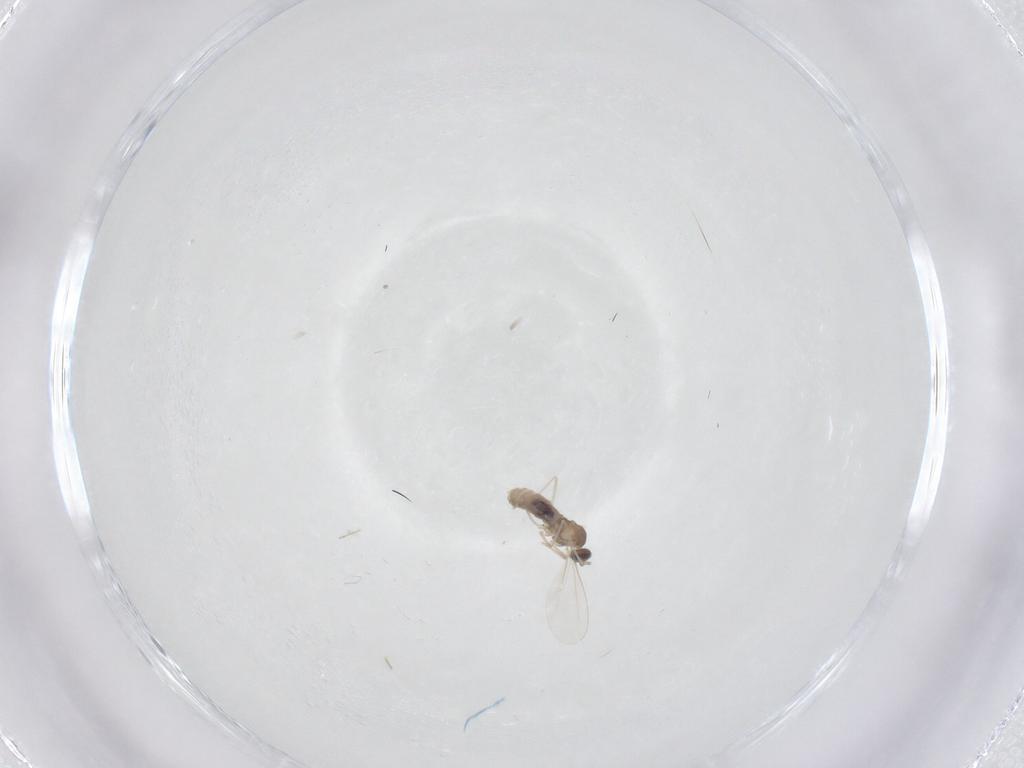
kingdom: Animalia
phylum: Arthropoda
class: Insecta
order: Diptera
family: Cecidomyiidae
